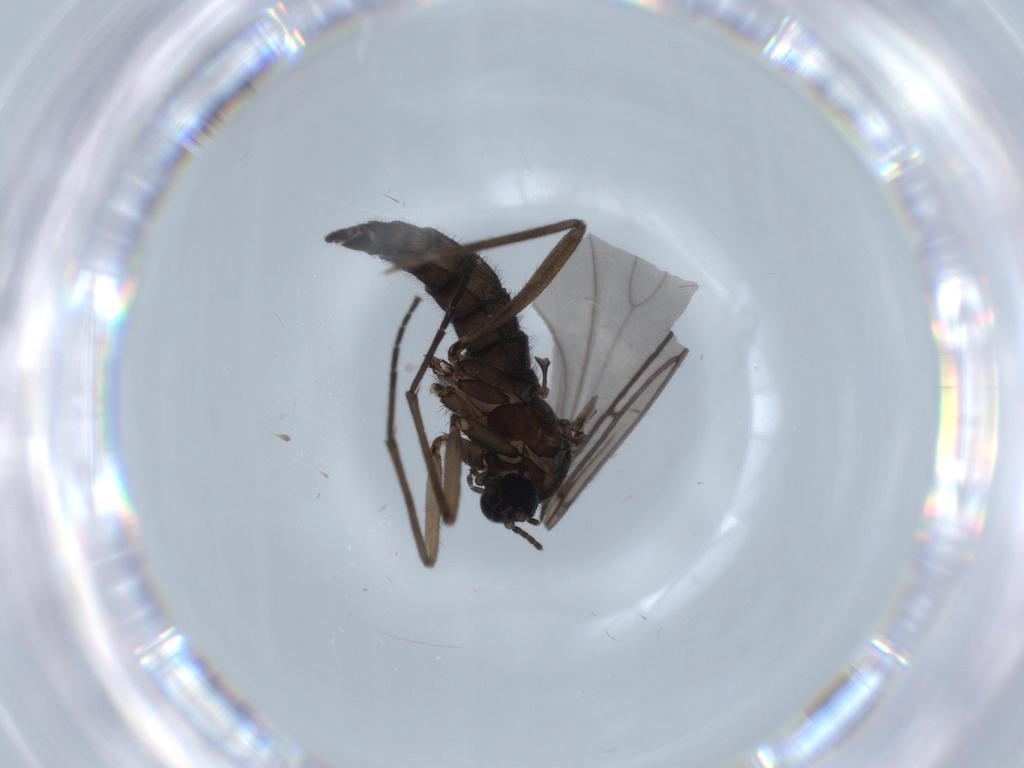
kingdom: Animalia
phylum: Arthropoda
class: Insecta
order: Diptera
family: Sciaridae
